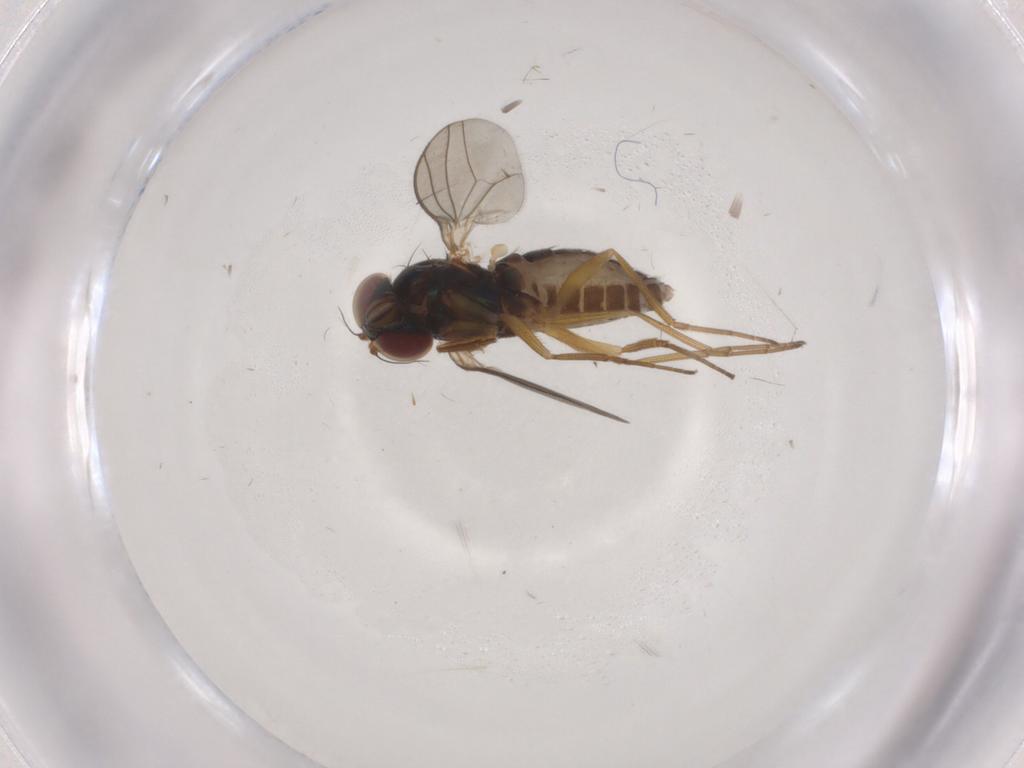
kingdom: Animalia
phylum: Arthropoda
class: Insecta
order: Diptera
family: Dolichopodidae
